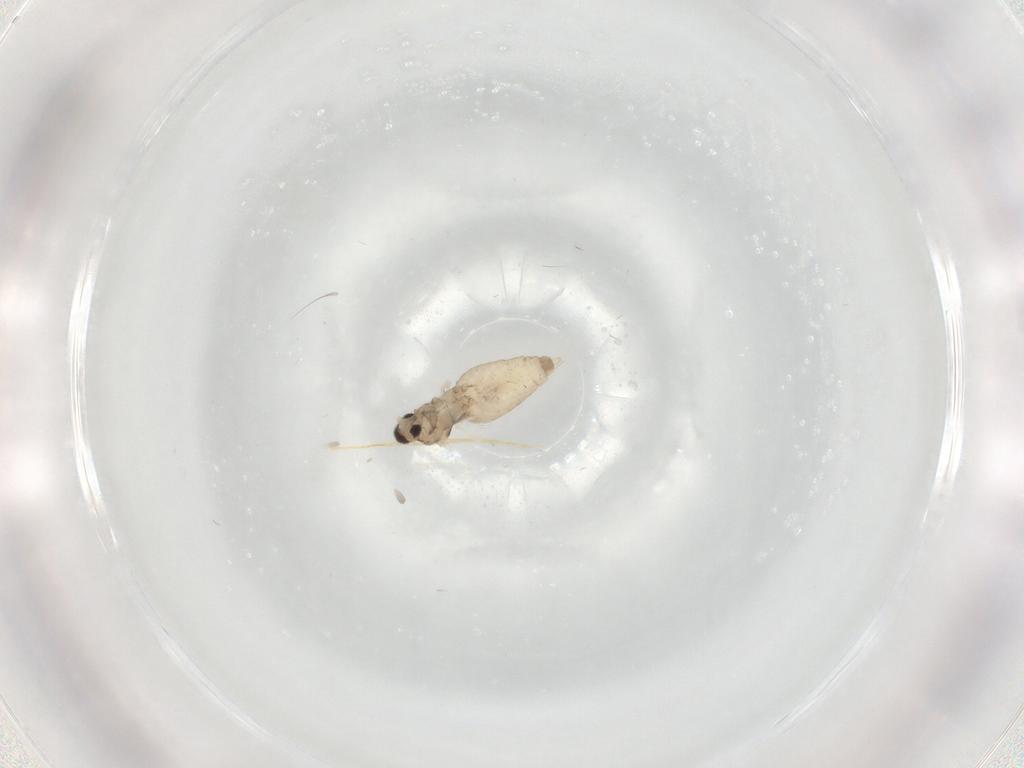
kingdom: Animalia
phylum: Arthropoda
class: Insecta
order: Diptera
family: Cecidomyiidae
